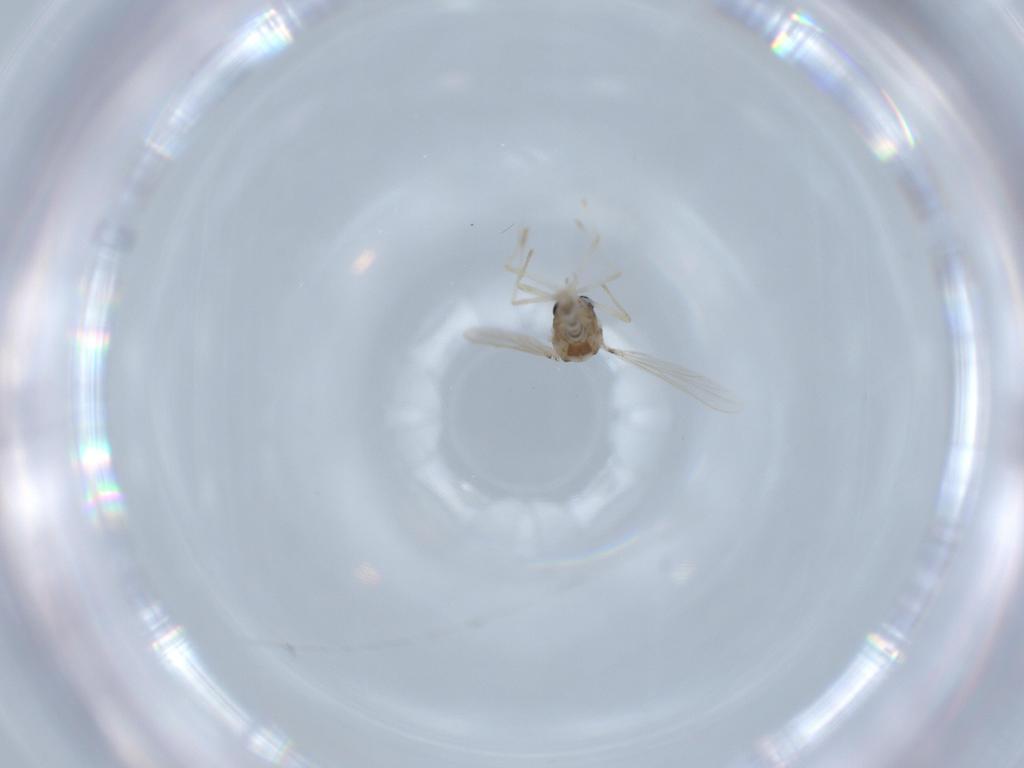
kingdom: Animalia
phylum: Arthropoda
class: Insecta
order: Diptera
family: Chironomidae
